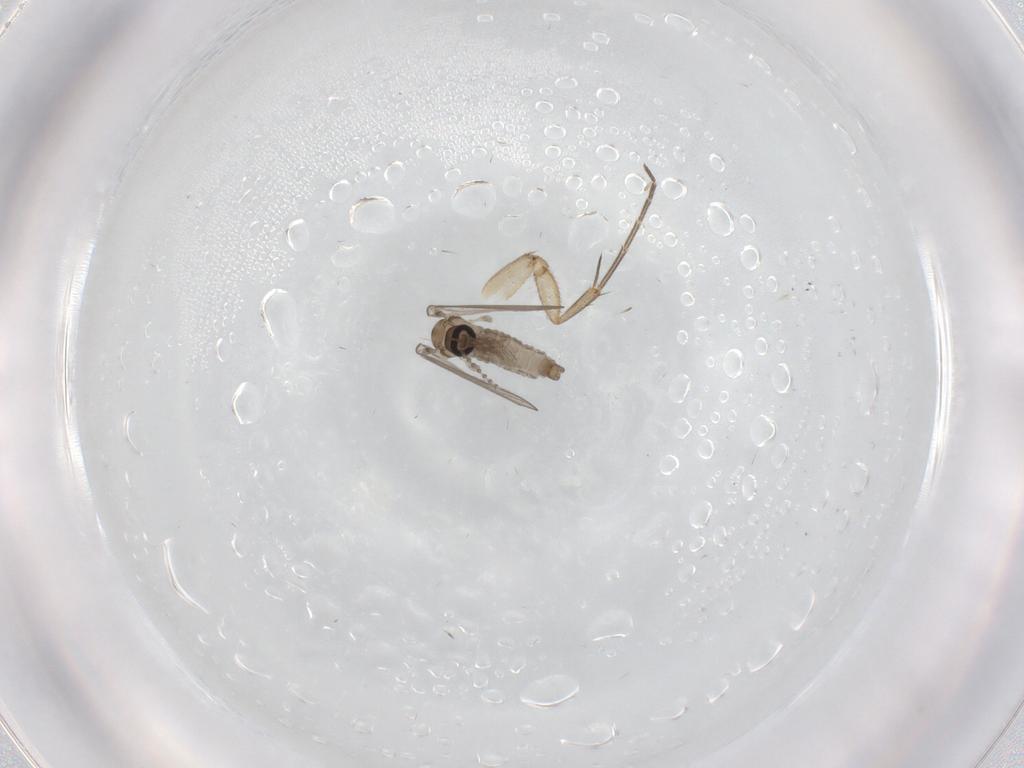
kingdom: Animalia
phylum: Arthropoda
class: Insecta
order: Diptera
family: Mycetophilidae
